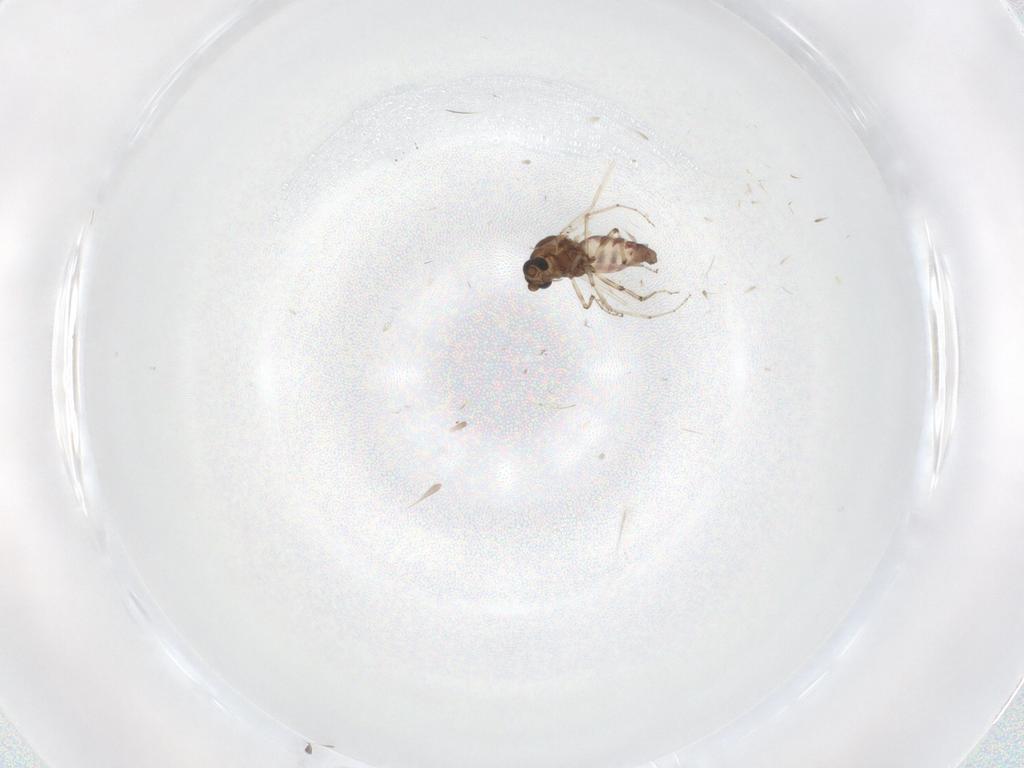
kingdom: Animalia
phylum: Arthropoda
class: Insecta
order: Diptera
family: Ceratopogonidae
